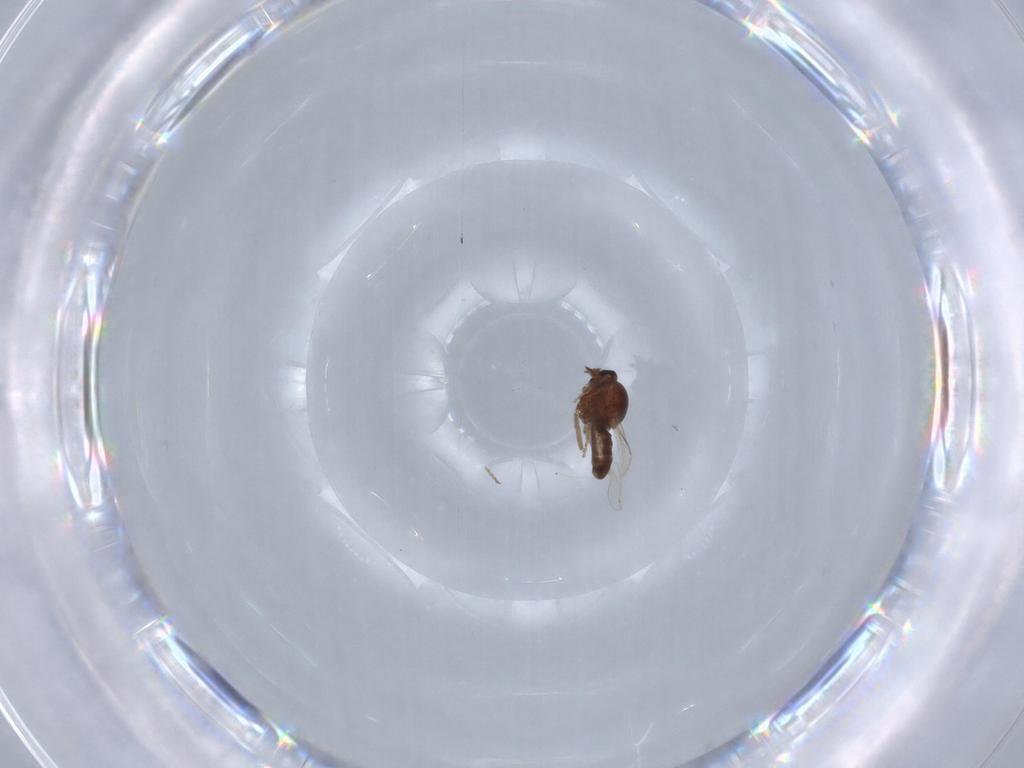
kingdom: Animalia
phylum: Arthropoda
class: Insecta
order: Diptera
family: Ceratopogonidae
